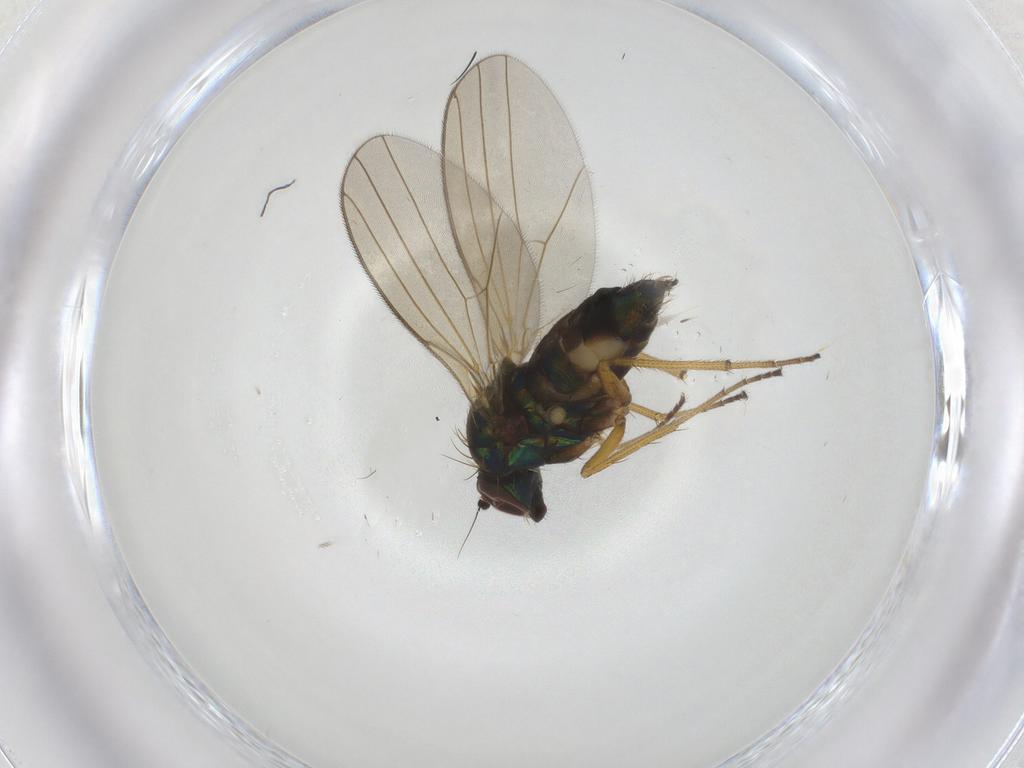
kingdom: Animalia
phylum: Arthropoda
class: Insecta
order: Diptera
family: Dolichopodidae
